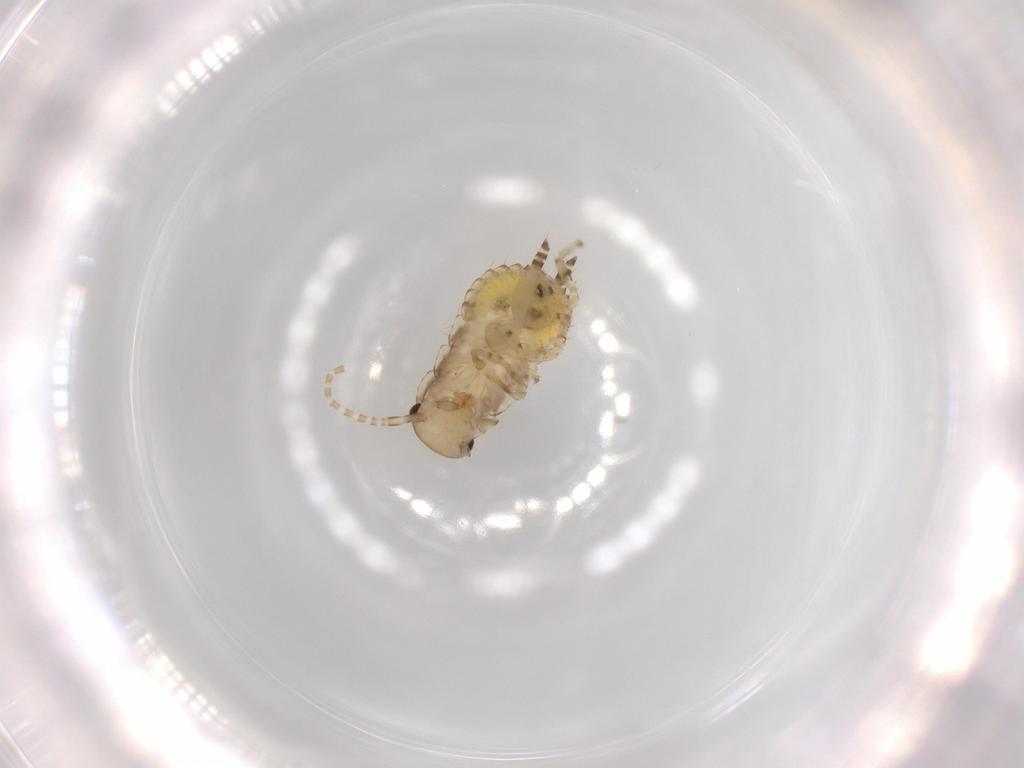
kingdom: Animalia
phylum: Arthropoda
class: Insecta
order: Blattodea
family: Ectobiidae
